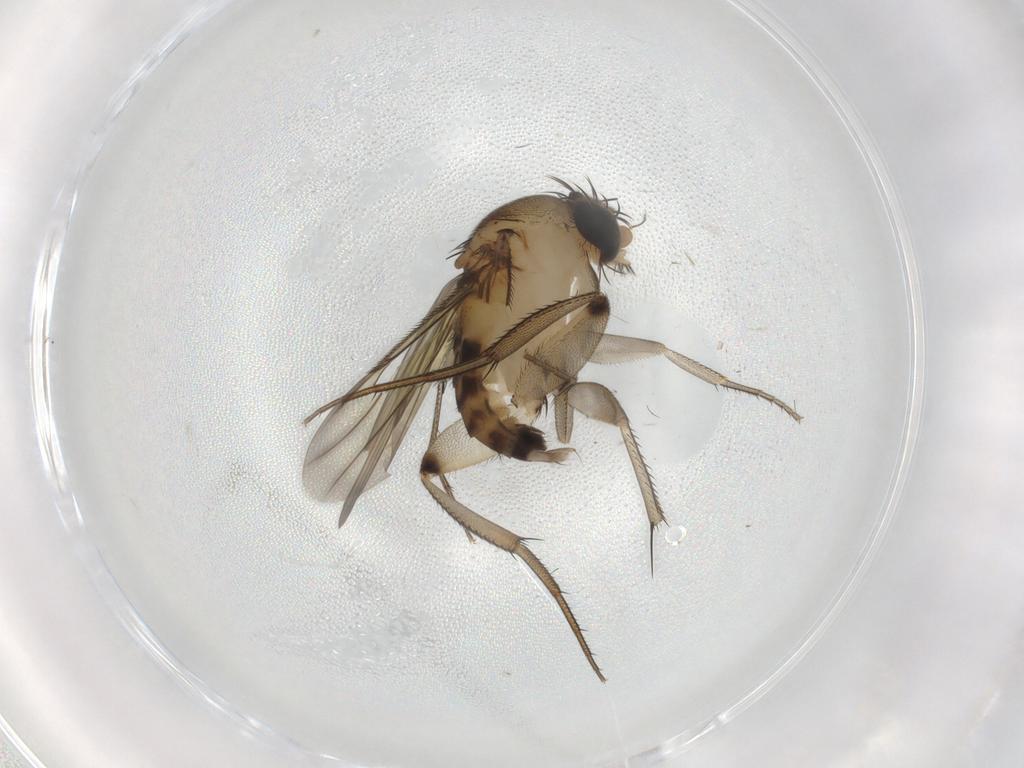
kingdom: Animalia
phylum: Arthropoda
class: Insecta
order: Diptera
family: Phoridae
